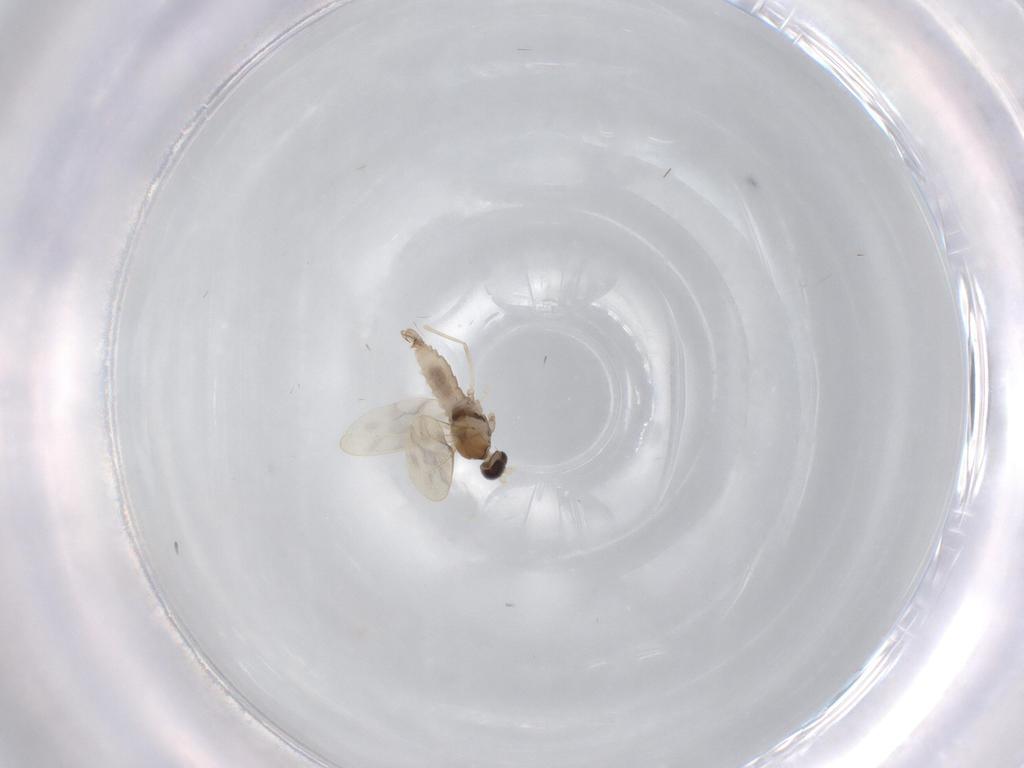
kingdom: Animalia
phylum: Arthropoda
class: Insecta
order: Diptera
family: Cecidomyiidae
